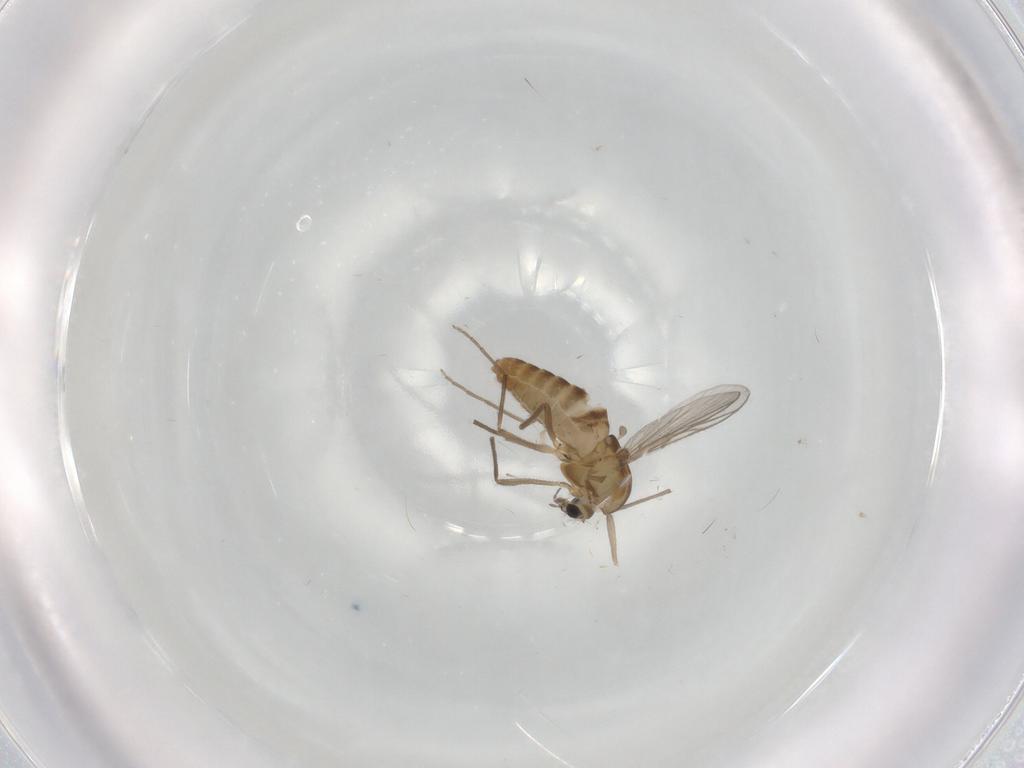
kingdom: Animalia
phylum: Arthropoda
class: Insecta
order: Diptera
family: Chironomidae
